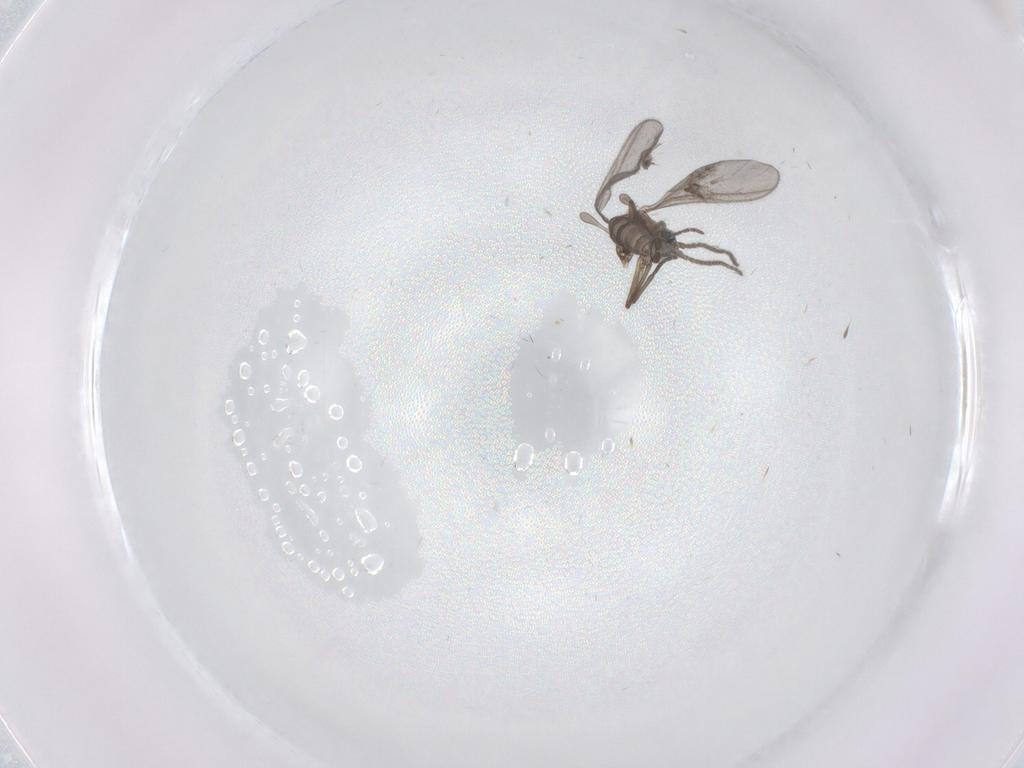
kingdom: Animalia
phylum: Arthropoda
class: Insecta
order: Diptera
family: Sciaridae
